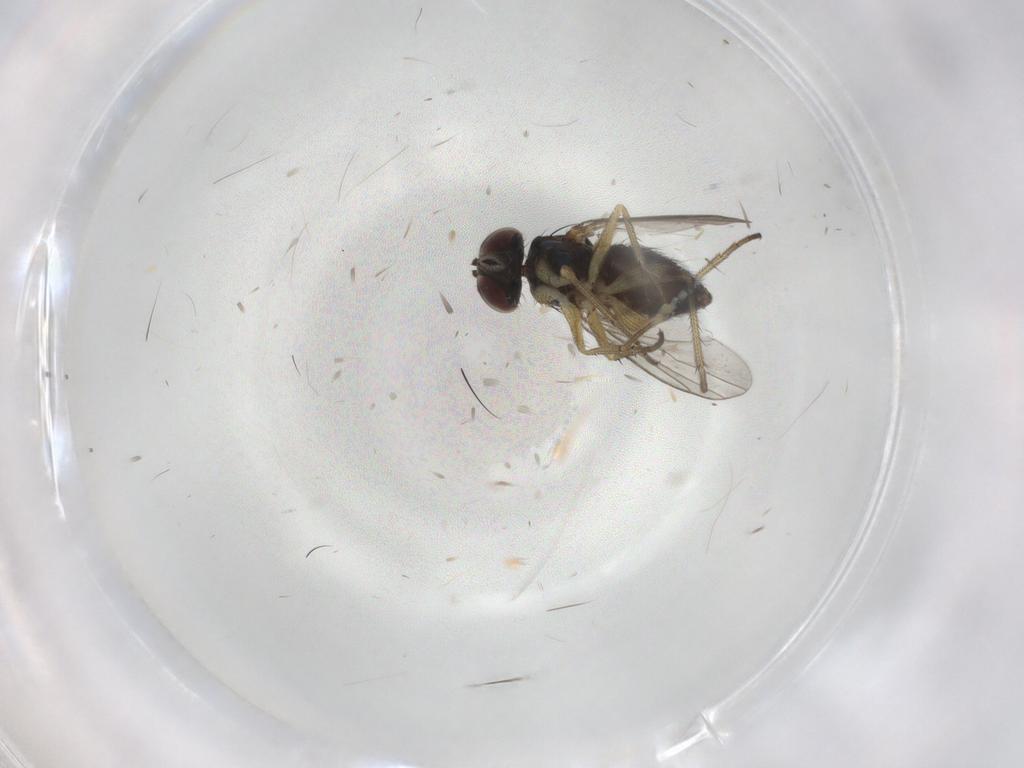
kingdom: Animalia
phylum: Arthropoda
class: Insecta
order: Diptera
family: Dolichopodidae
